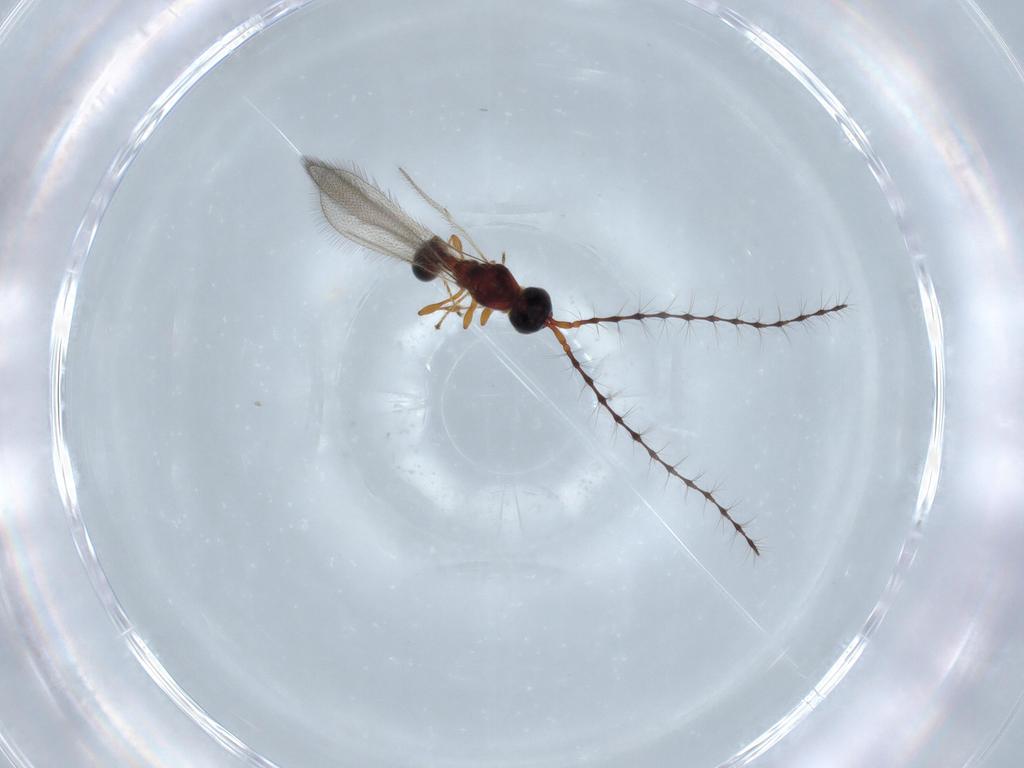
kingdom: Animalia
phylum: Arthropoda
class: Insecta
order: Hymenoptera
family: Diapriidae
